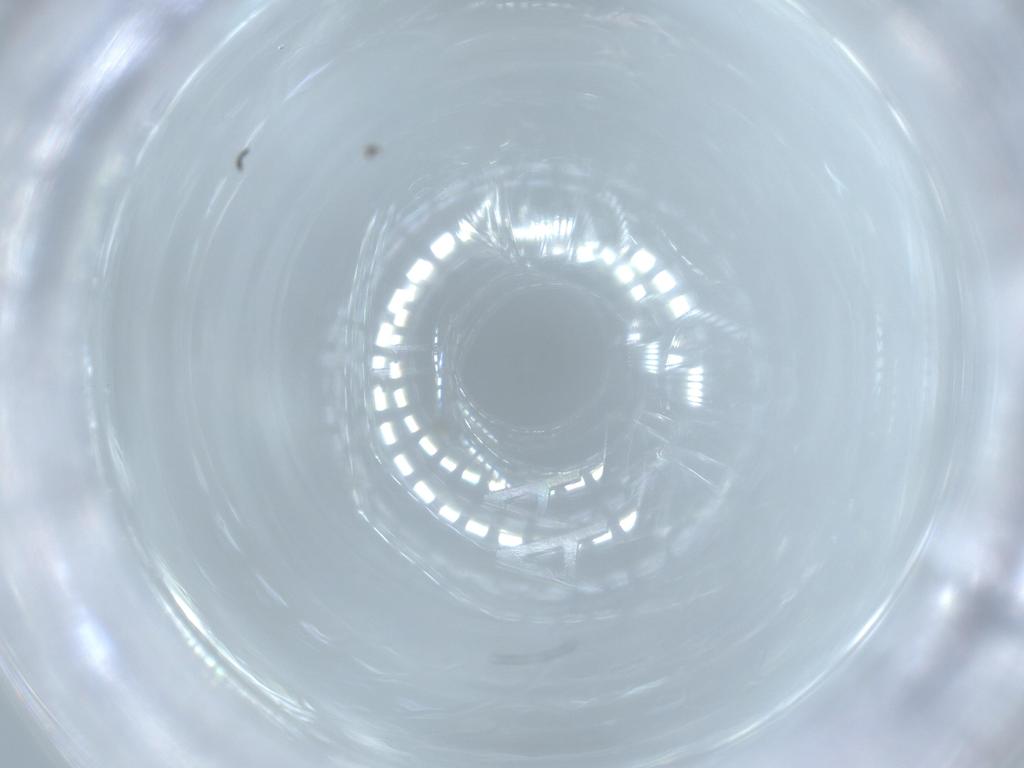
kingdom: Animalia
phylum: Arthropoda
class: Collembola
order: Symphypleona
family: Sminthurididae
